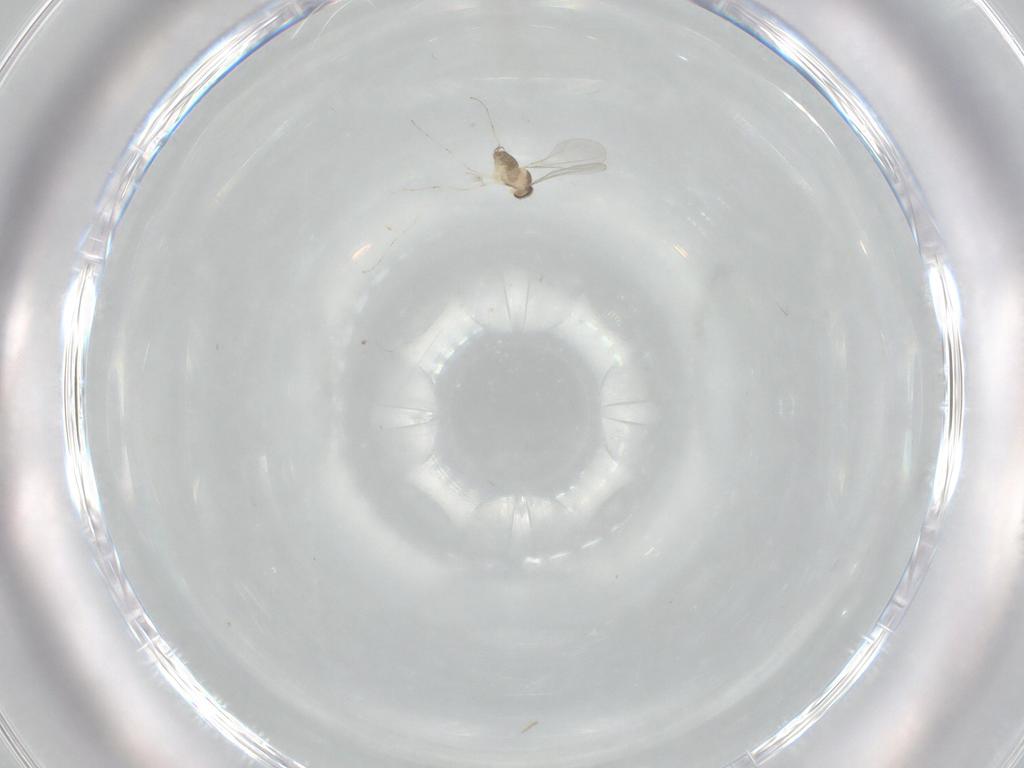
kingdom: Animalia
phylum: Arthropoda
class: Insecta
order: Diptera
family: Cecidomyiidae
